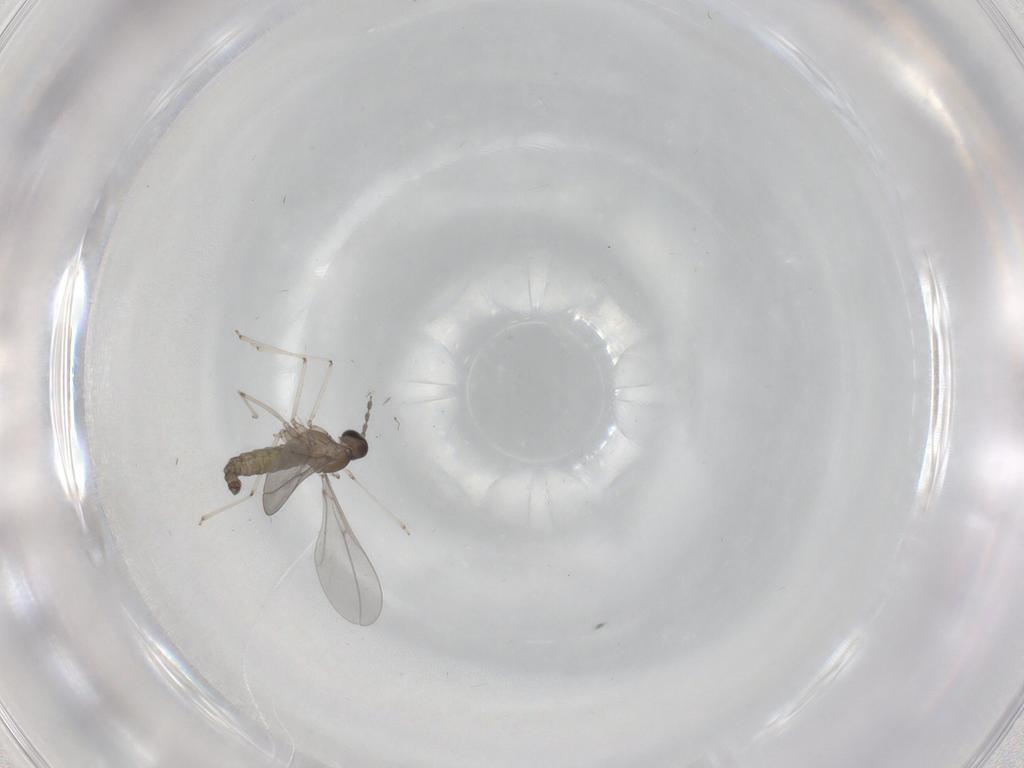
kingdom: Animalia
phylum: Arthropoda
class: Insecta
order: Diptera
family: Cecidomyiidae
